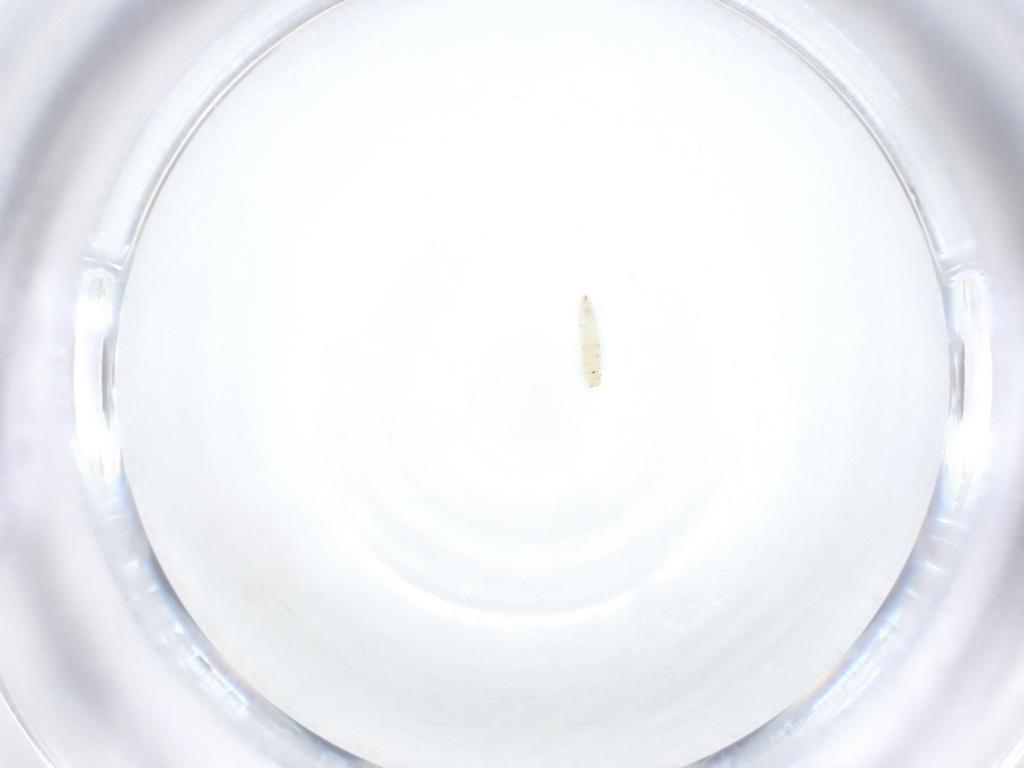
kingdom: Animalia
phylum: Arthropoda
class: Insecta
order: Diptera
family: Sarcophagidae
